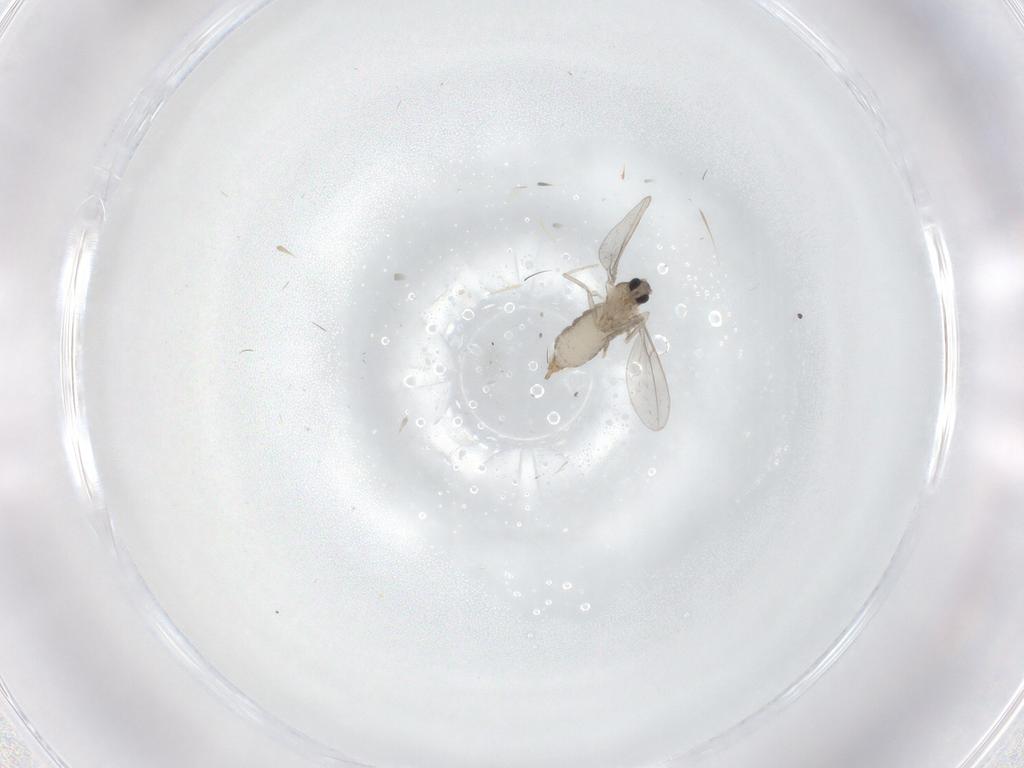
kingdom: Animalia
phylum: Arthropoda
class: Insecta
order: Diptera
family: Cecidomyiidae
